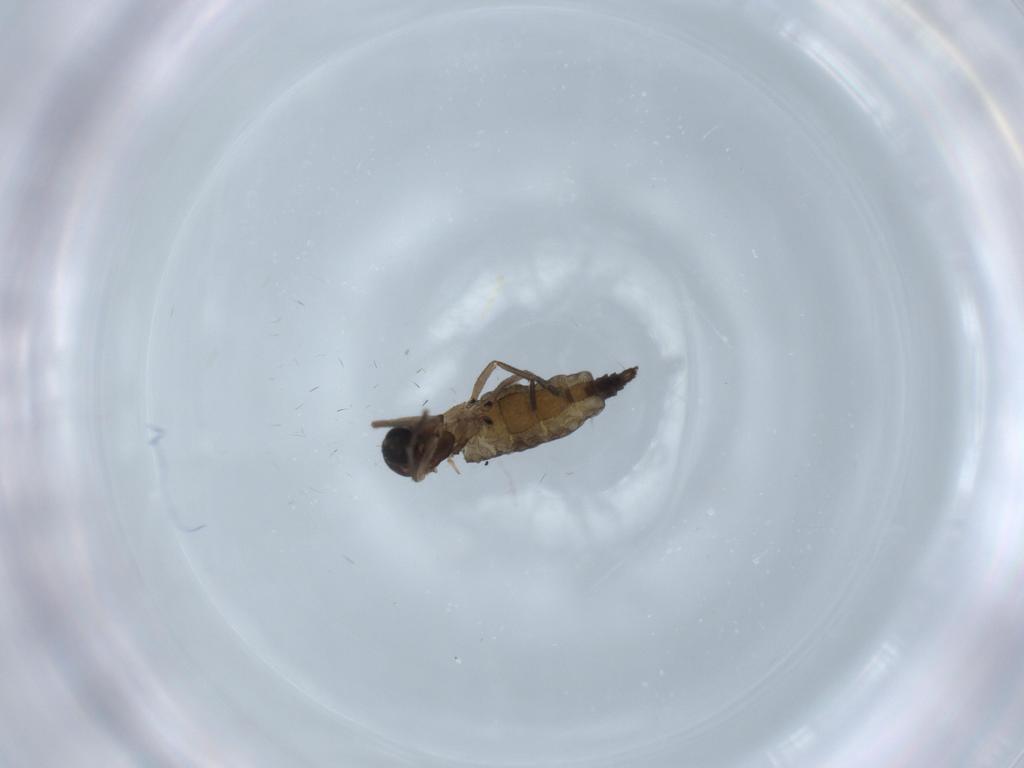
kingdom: Animalia
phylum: Arthropoda
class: Insecta
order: Diptera
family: Sciaridae
